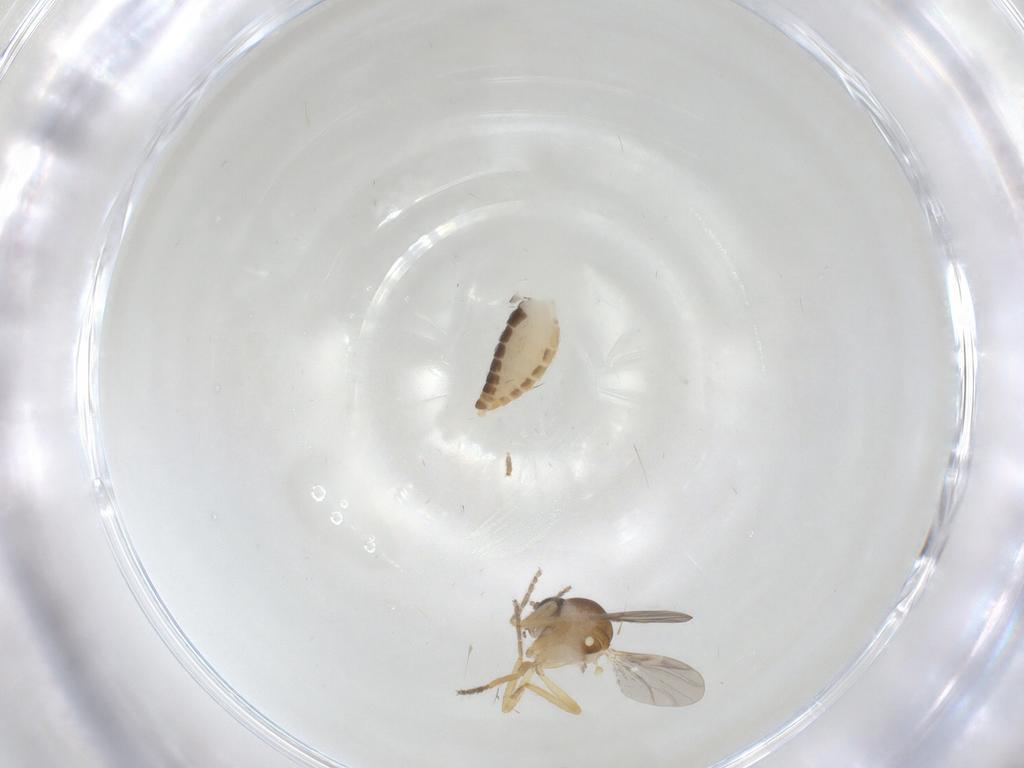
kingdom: Animalia
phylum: Arthropoda
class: Insecta
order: Diptera
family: Ceratopogonidae
